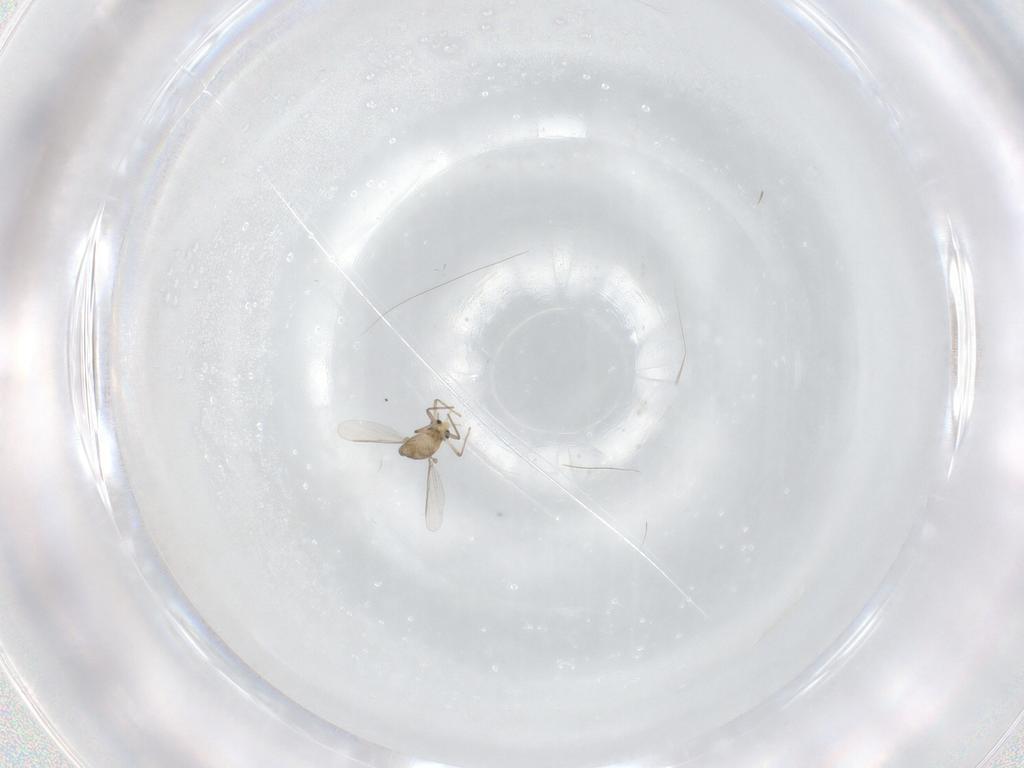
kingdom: Animalia
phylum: Arthropoda
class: Insecta
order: Diptera
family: Chironomidae
